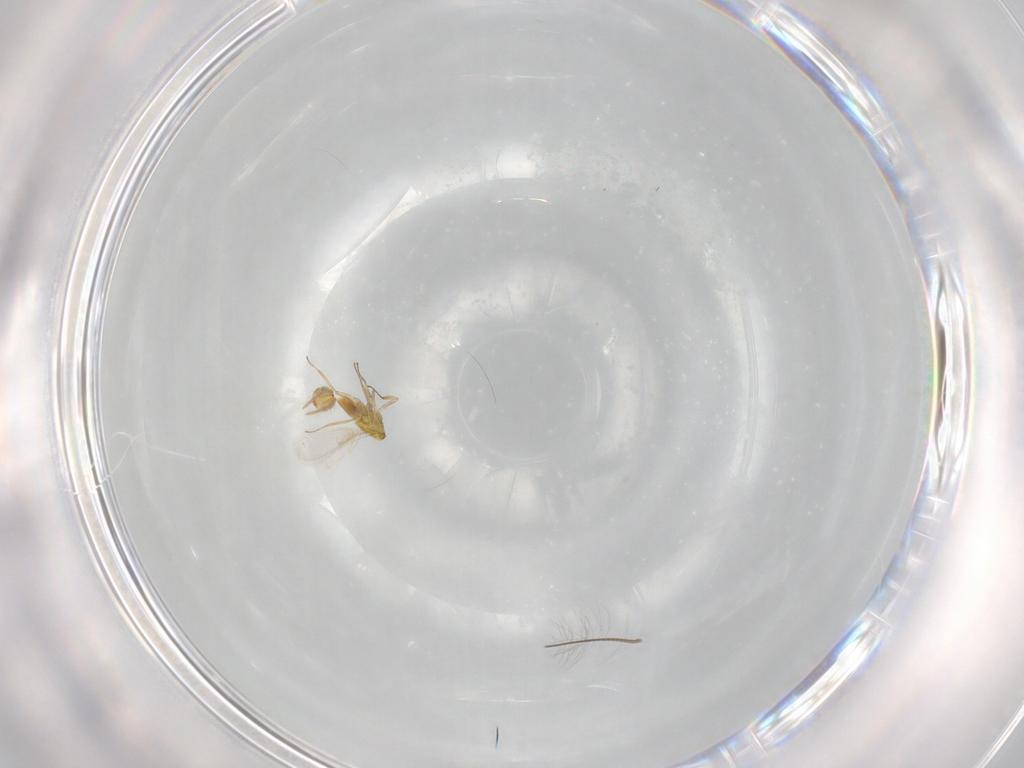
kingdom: Animalia
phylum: Arthropoda
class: Insecta
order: Hymenoptera
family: Aphelinidae
